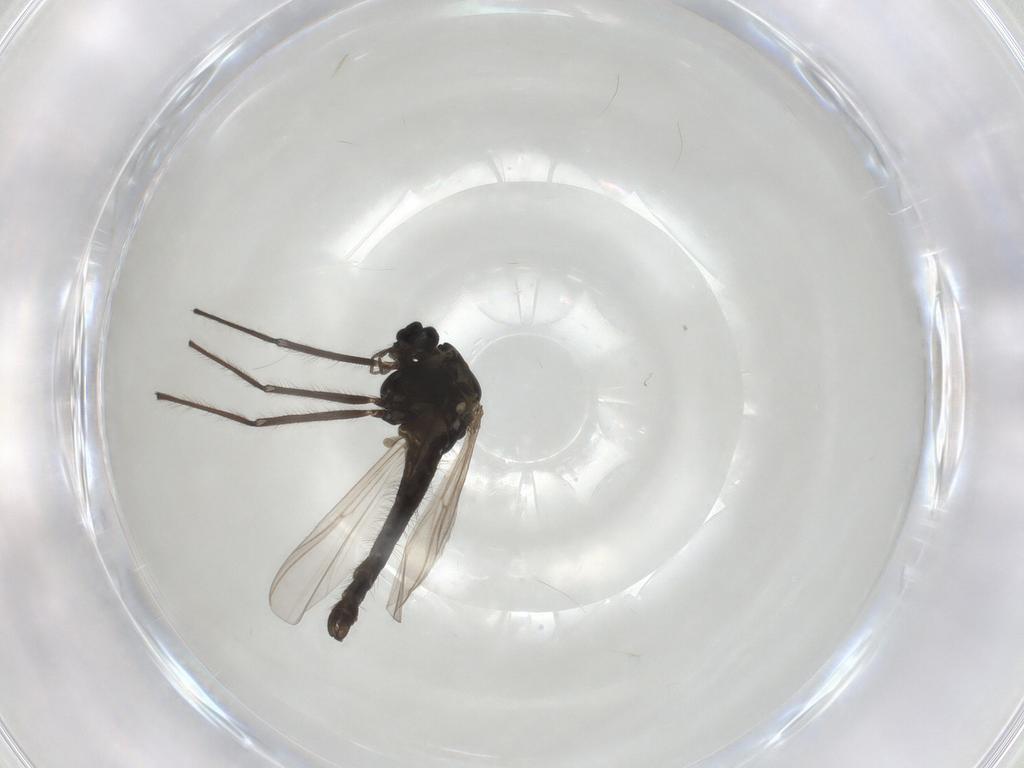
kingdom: Animalia
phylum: Arthropoda
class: Insecta
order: Diptera
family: Chironomidae
